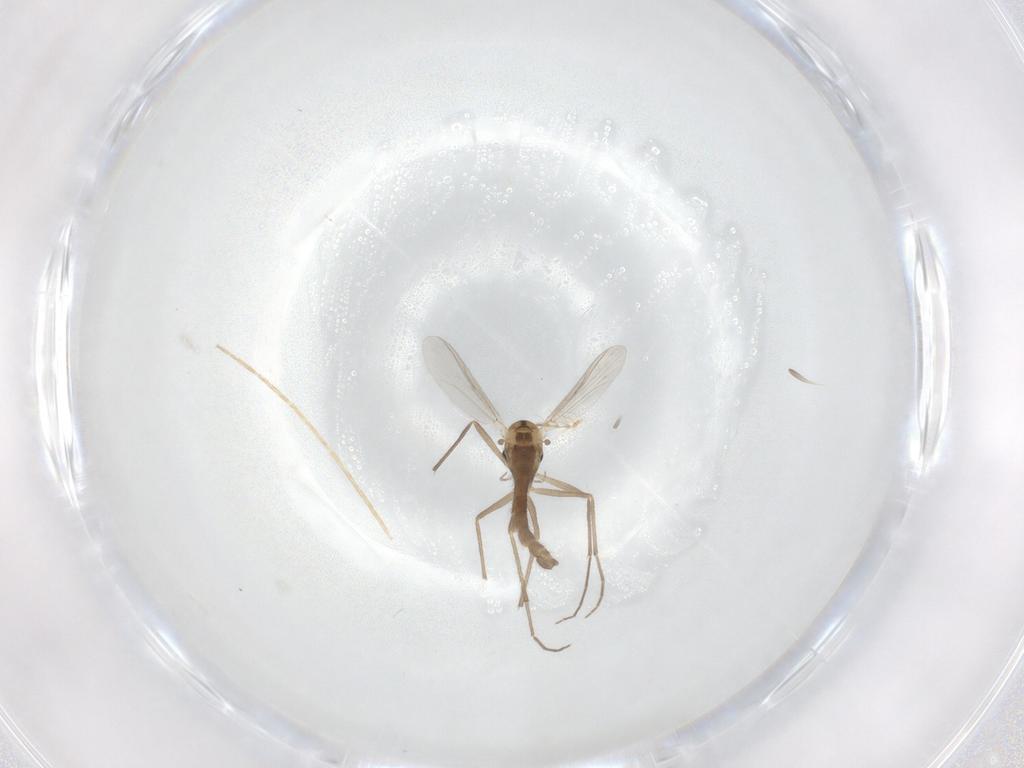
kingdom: Animalia
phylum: Arthropoda
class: Insecta
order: Diptera
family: Chironomidae
